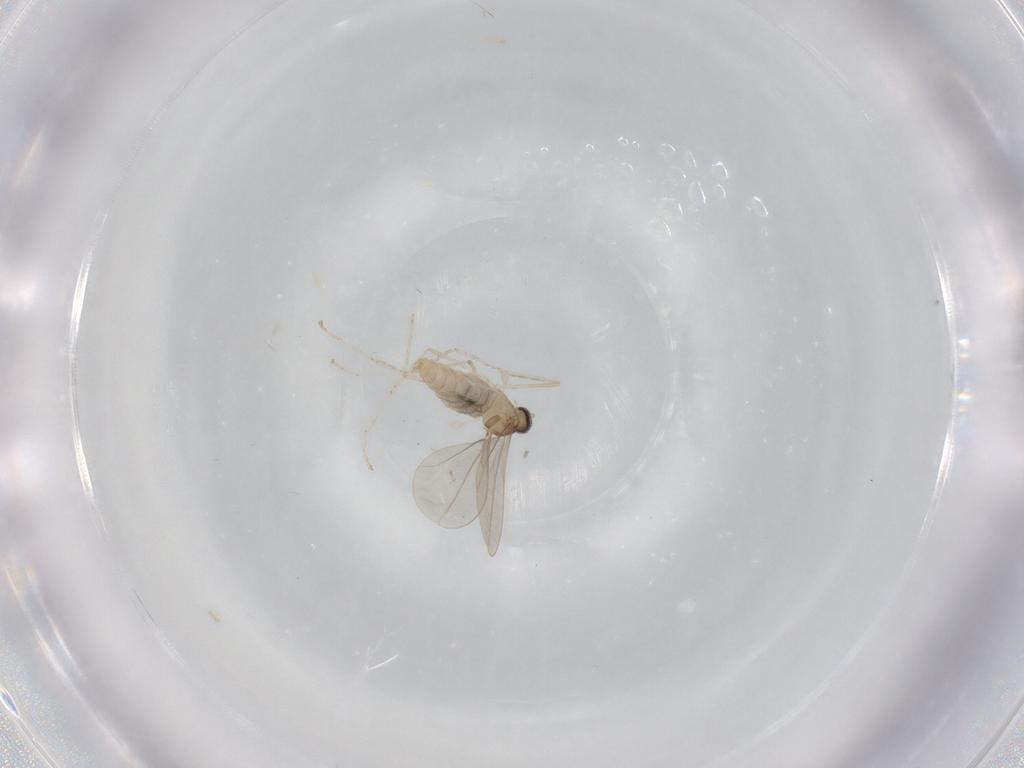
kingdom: Animalia
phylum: Arthropoda
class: Insecta
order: Diptera
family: Cecidomyiidae
